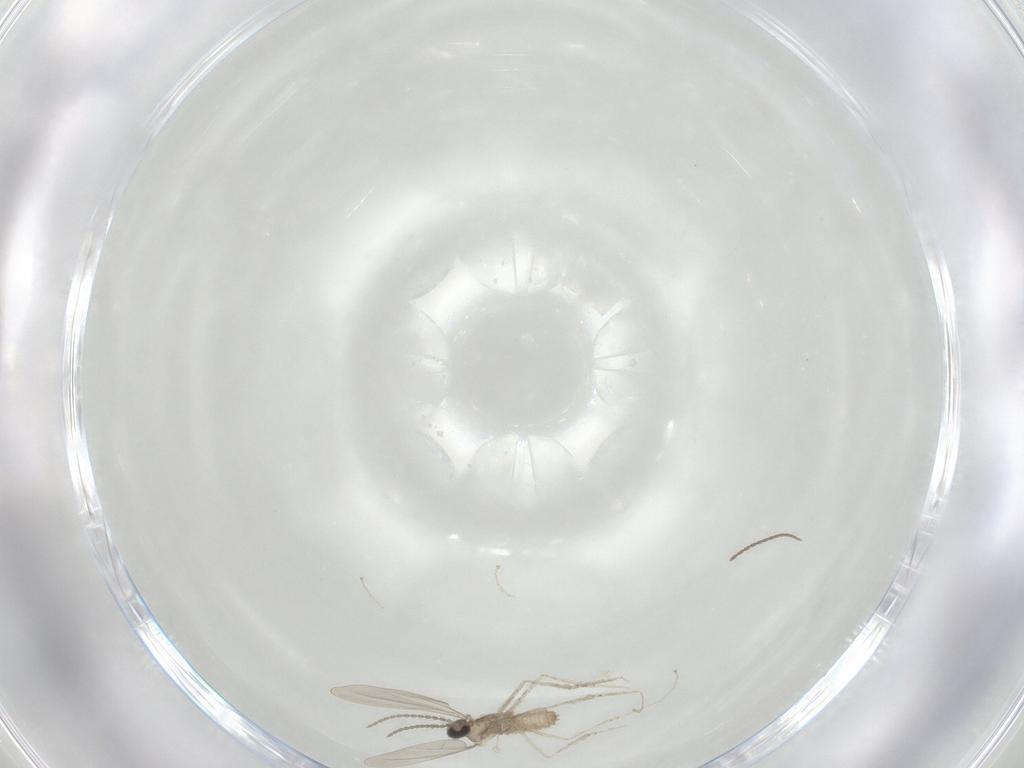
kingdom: Animalia
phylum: Arthropoda
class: Insecta
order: Diptera
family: Cecidomyiidae
